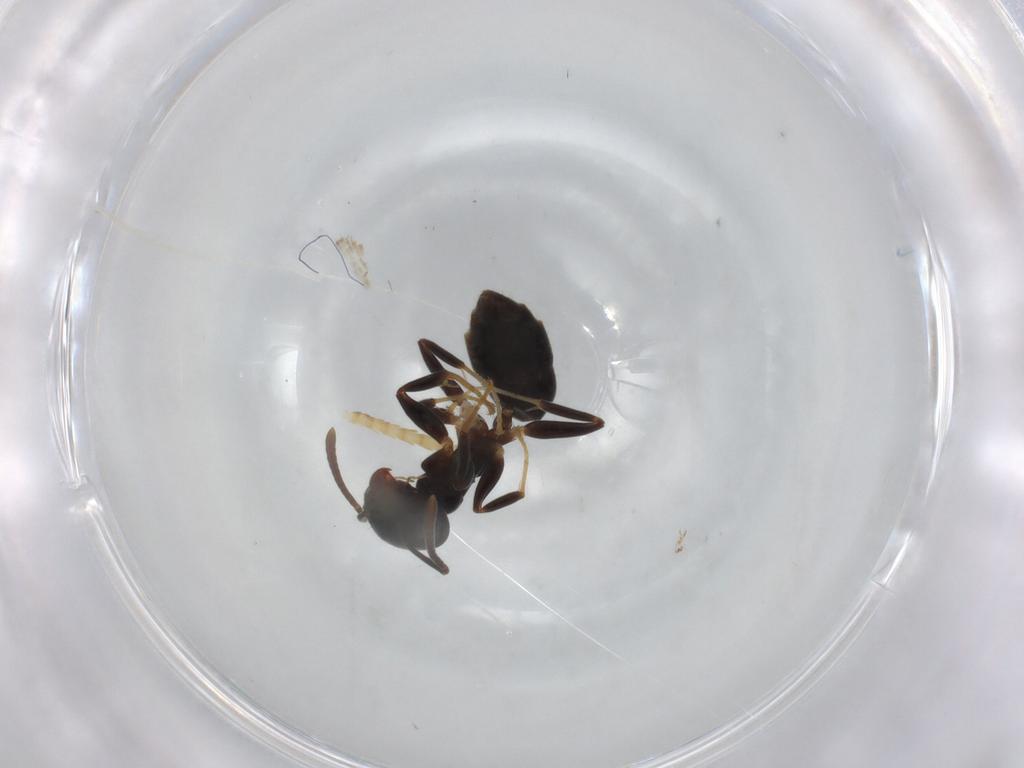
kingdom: Animalia
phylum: Arthropoda
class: Insecta
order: Hymenoptera
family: Formicidae
